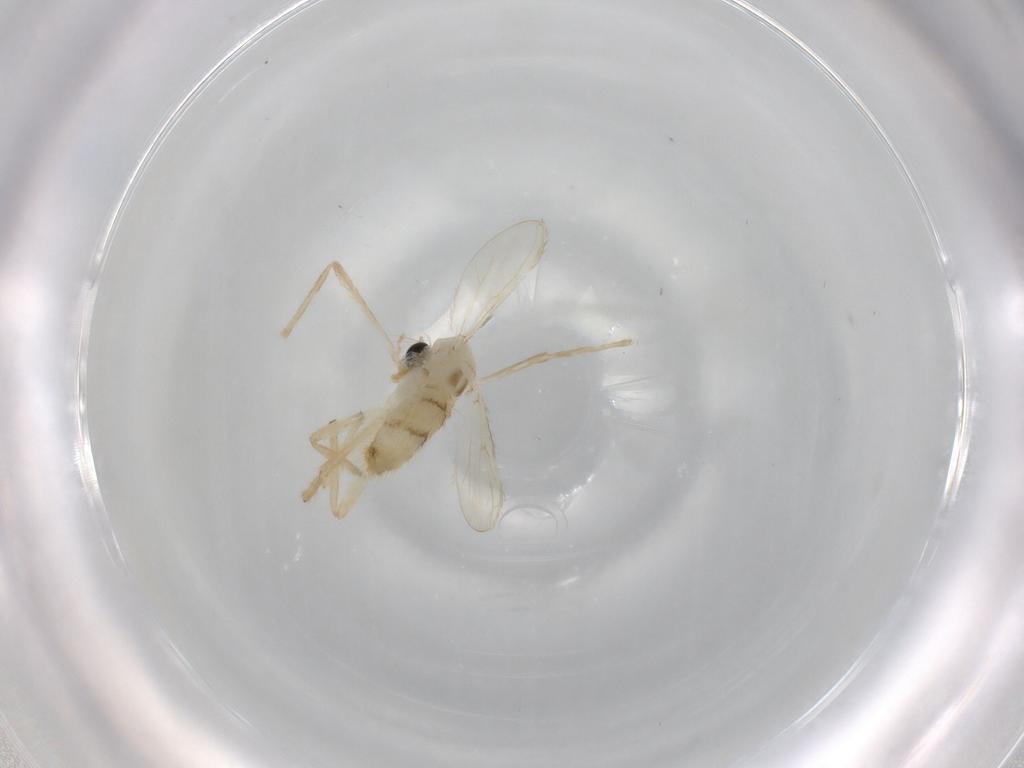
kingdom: Animalia
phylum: Arthropoda
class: Insecta
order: Diptera
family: Chironomidae
